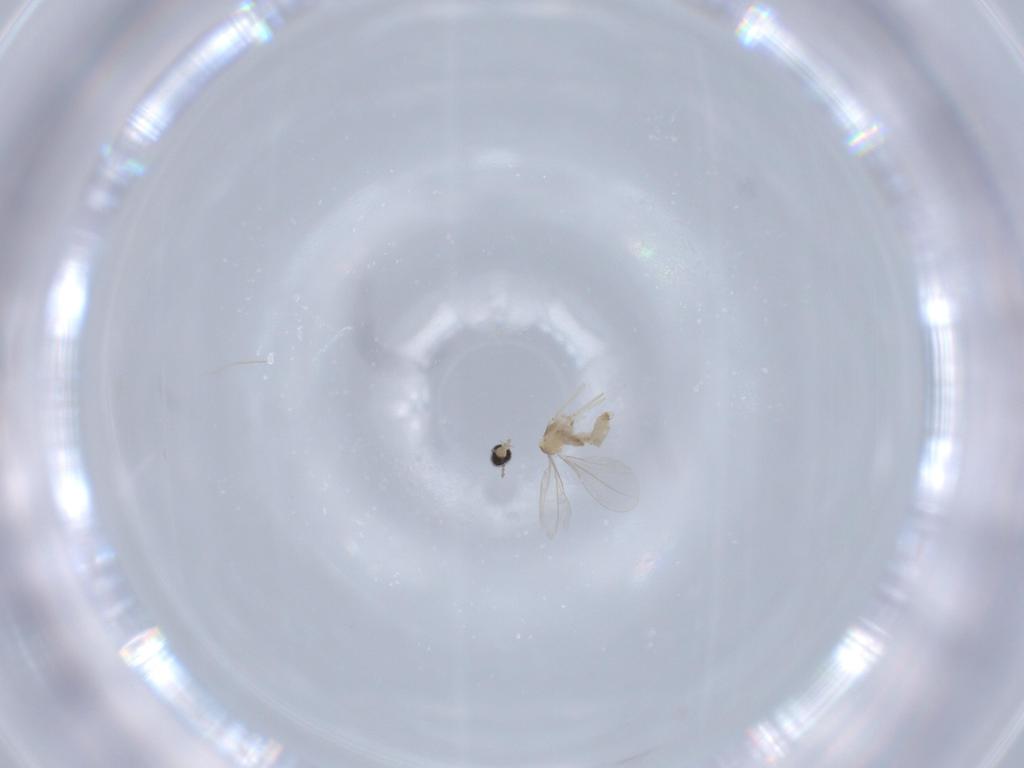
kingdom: Animalia
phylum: Arthropoda
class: Insecta
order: Diptera
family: Cecidomyiidae
